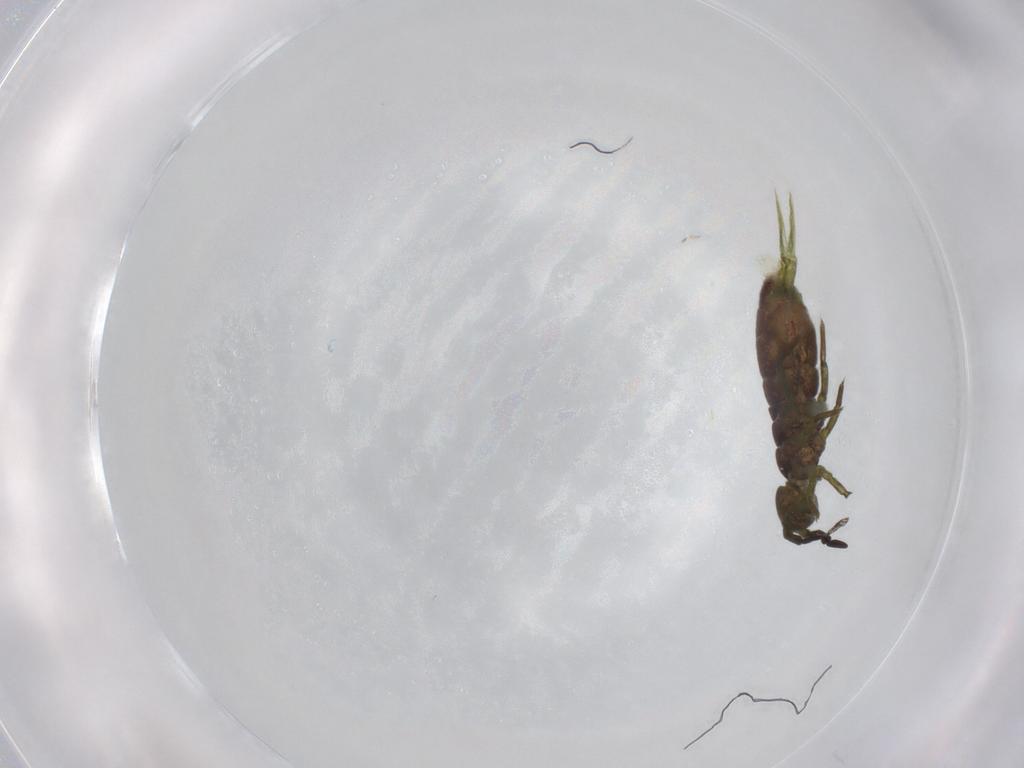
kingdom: Animalia
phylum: Arthropoda
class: Collembola
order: Entomobryomorpha
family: Isotomidae
